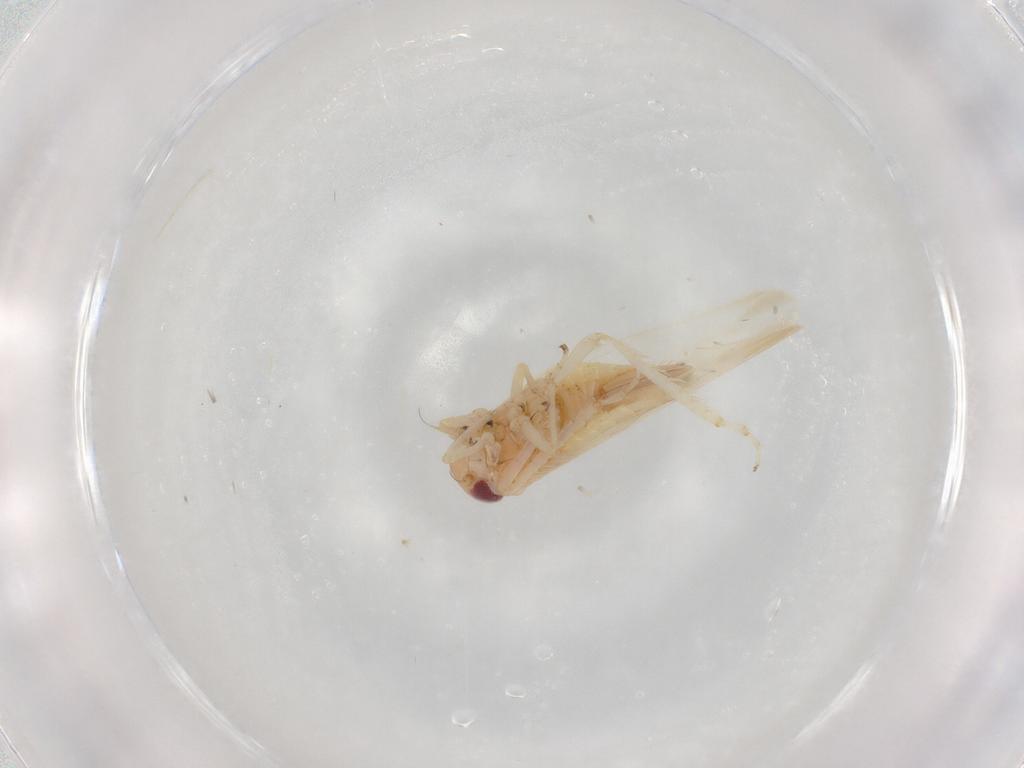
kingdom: Animalia
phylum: Arthropoda
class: Insecta
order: Hemiptera
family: Cicadellidae
